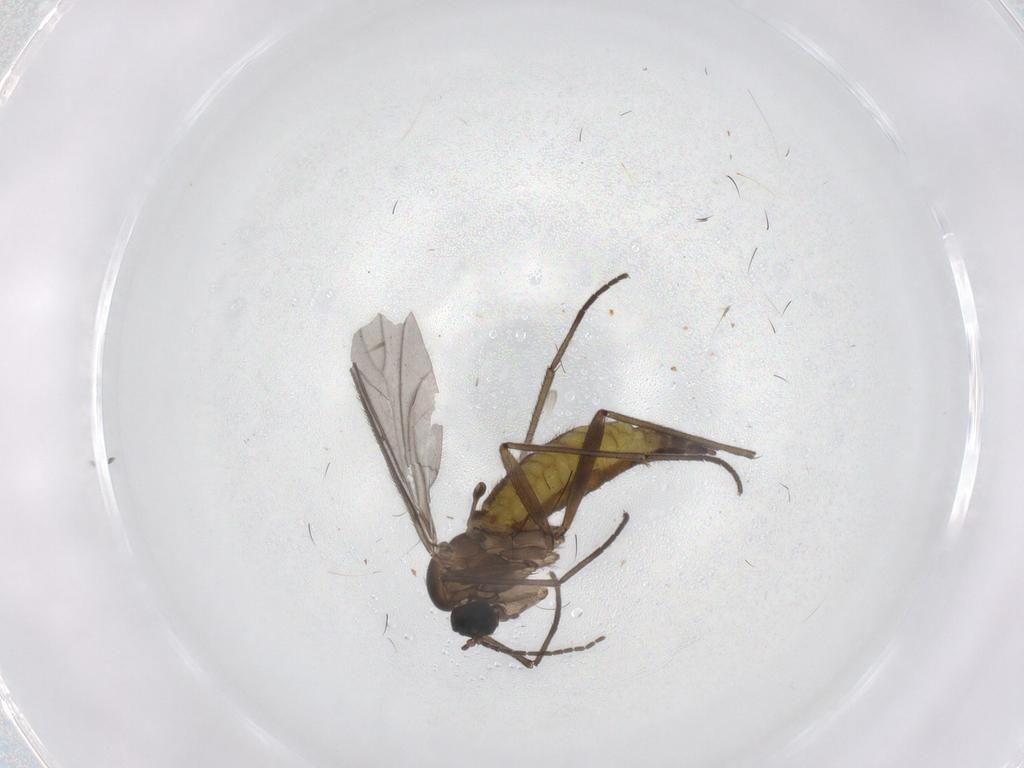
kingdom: Animalia
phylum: Arthropoda
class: Insecta
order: Diptera
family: Sciaridae
